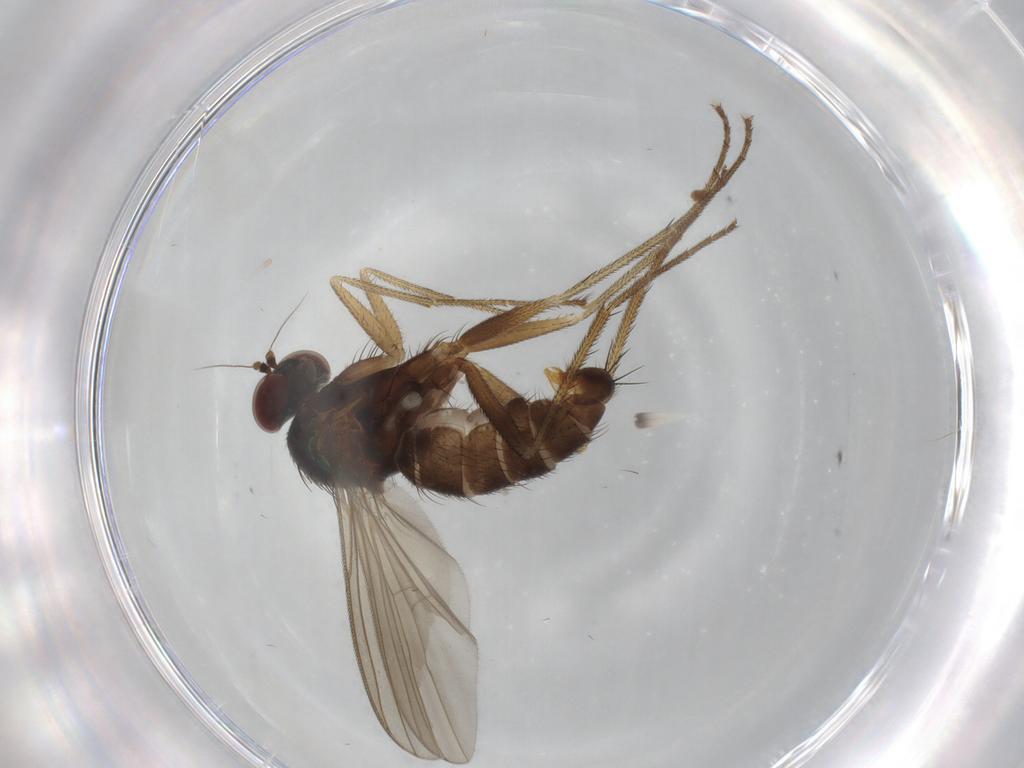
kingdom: Animalia
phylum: Arthropoda
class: Insecta
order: Diptera
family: Dolichopodidae
